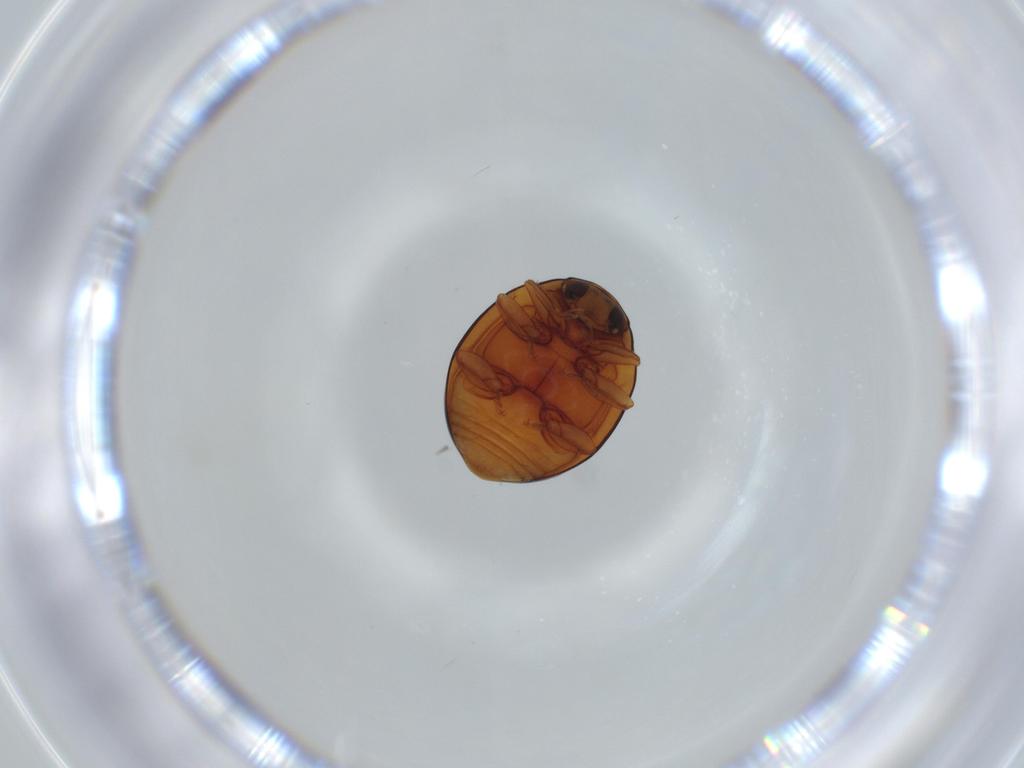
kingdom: Animalia
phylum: Arthropoda
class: Insecta
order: Coleoptera
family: Coccinellidae
